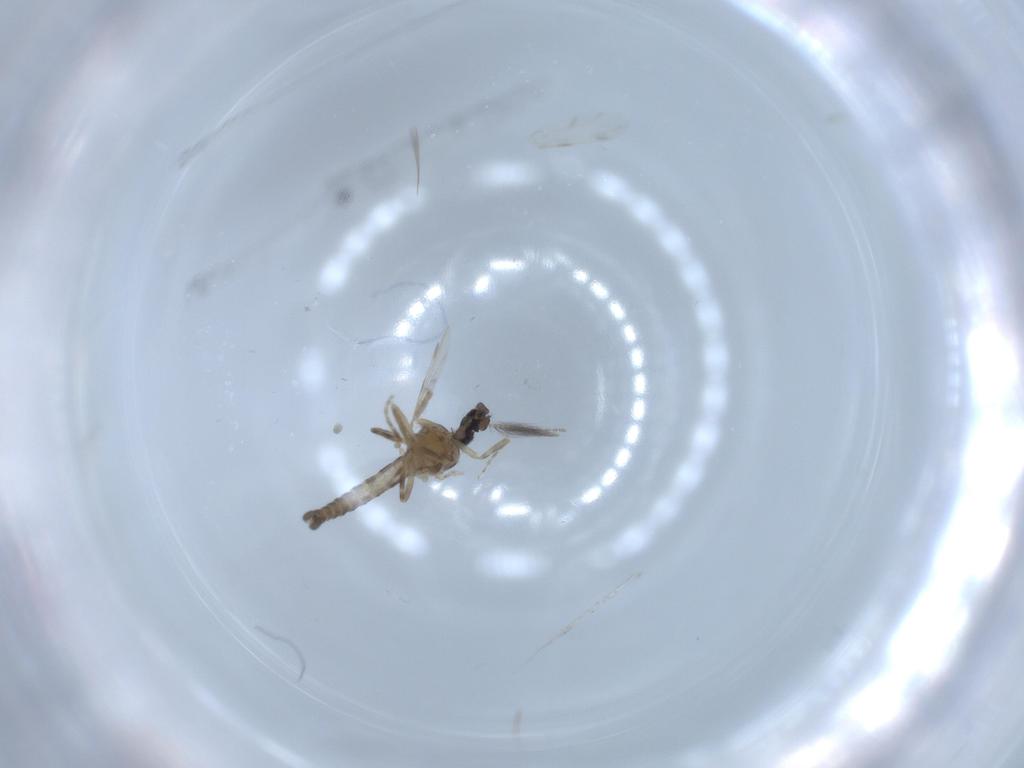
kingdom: Animalia
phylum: Arthropoda
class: Insecta
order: Diptera
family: Ceratopogonidae
